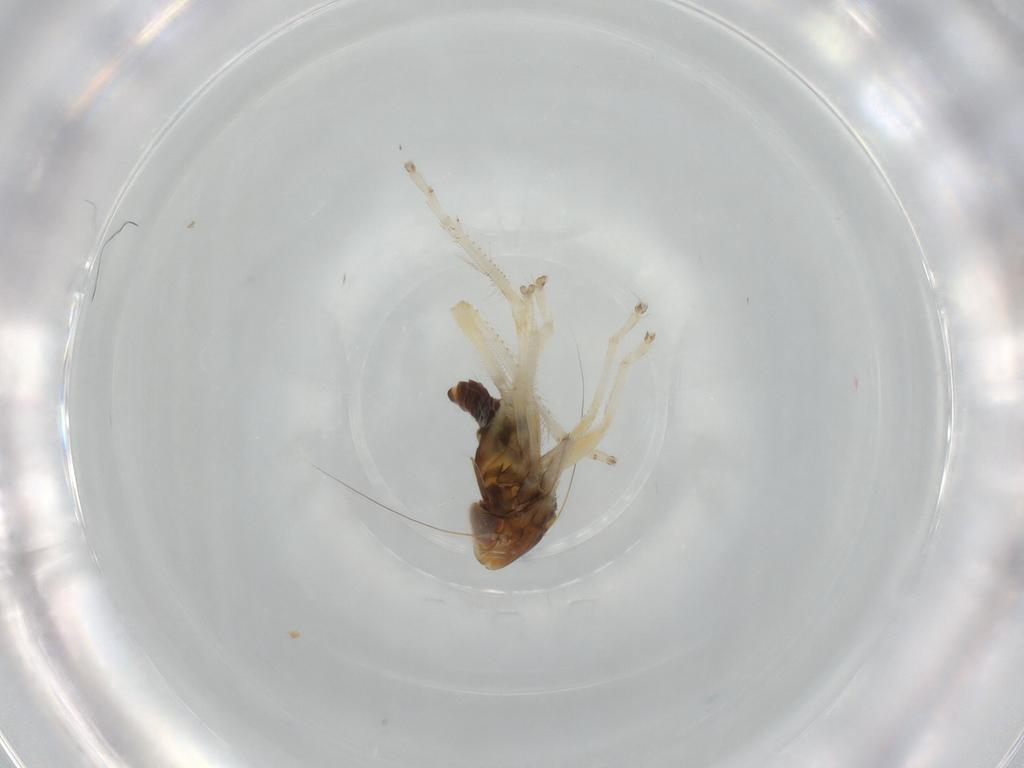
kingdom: Animalia
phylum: Arthropoda
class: Insecta
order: Hemiptera
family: Cicadellidae
